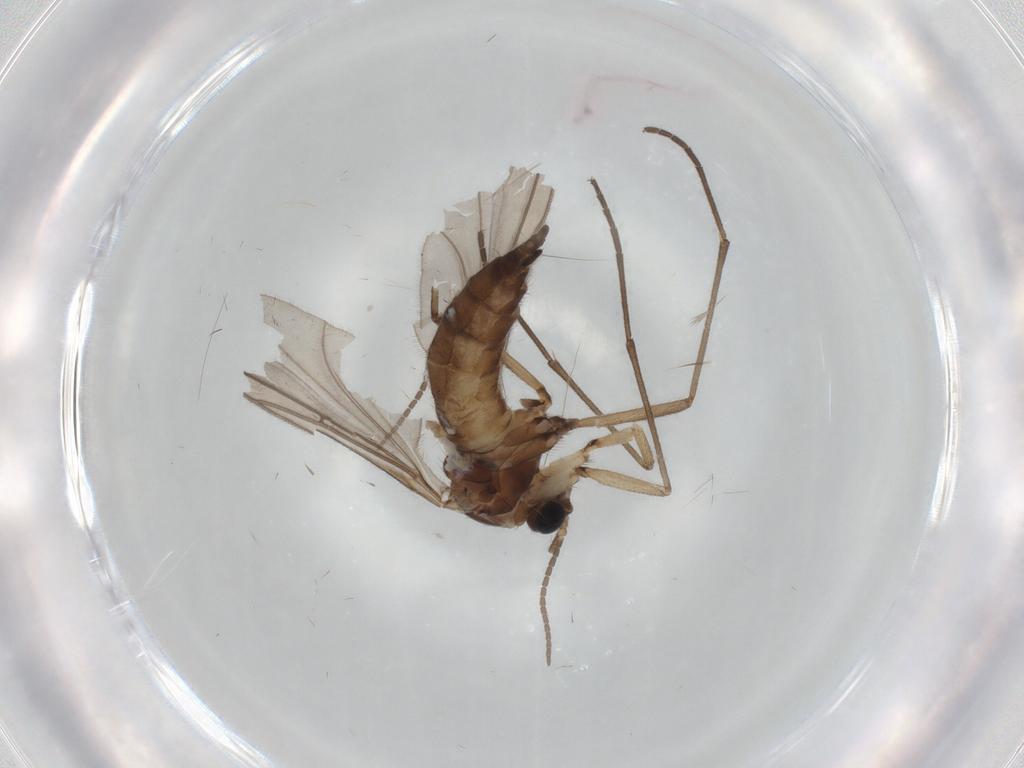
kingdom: Animalia
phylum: Arthropoda
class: Insecta
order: Diptera
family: Sciaridae
